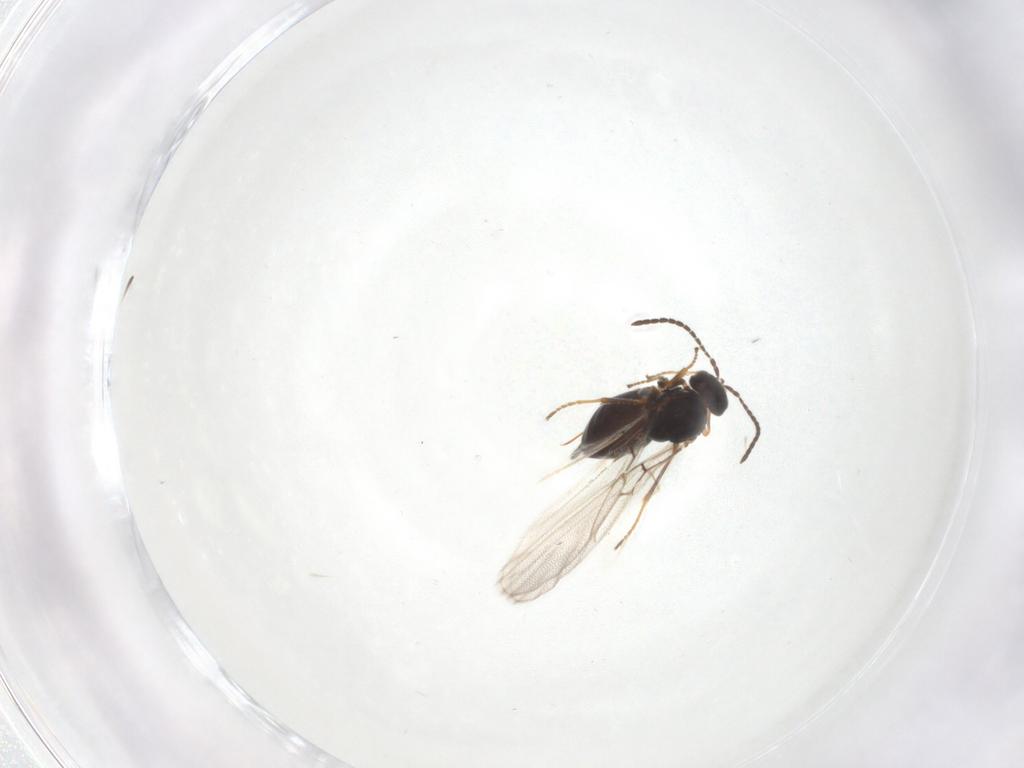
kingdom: Animalia
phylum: Arthropoda
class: Insecta
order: Hymenoptera
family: Cynipidae
